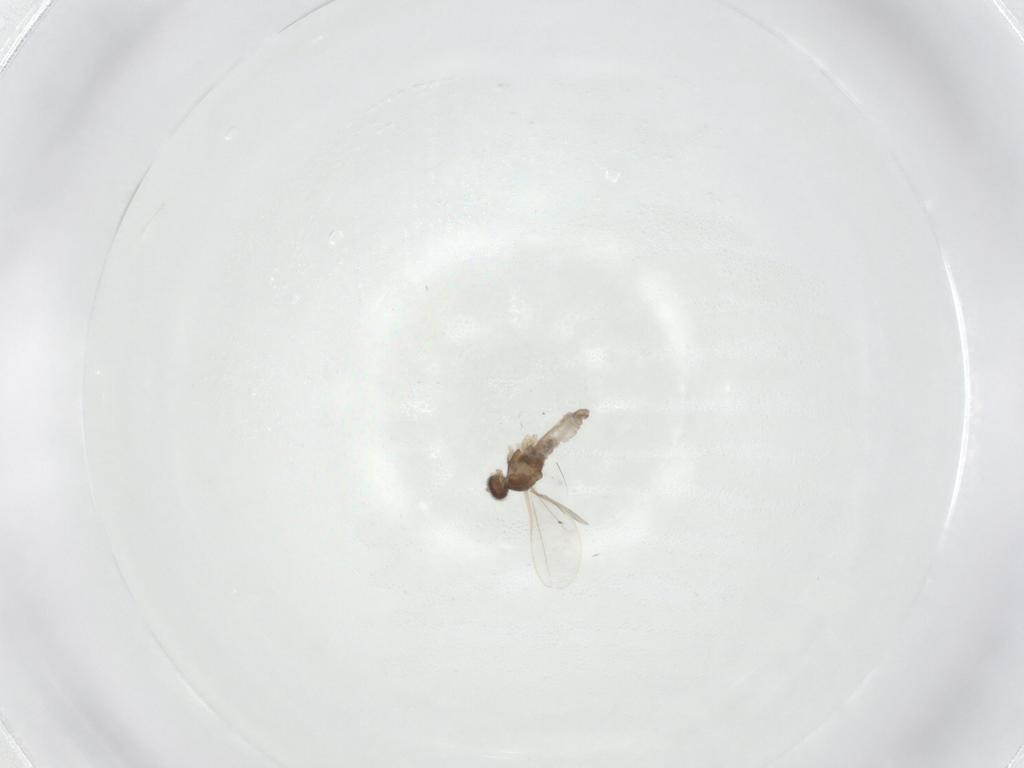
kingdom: Animalia
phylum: Arthropoda
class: Insecta
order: Diptera
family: Cecidomyiidae
